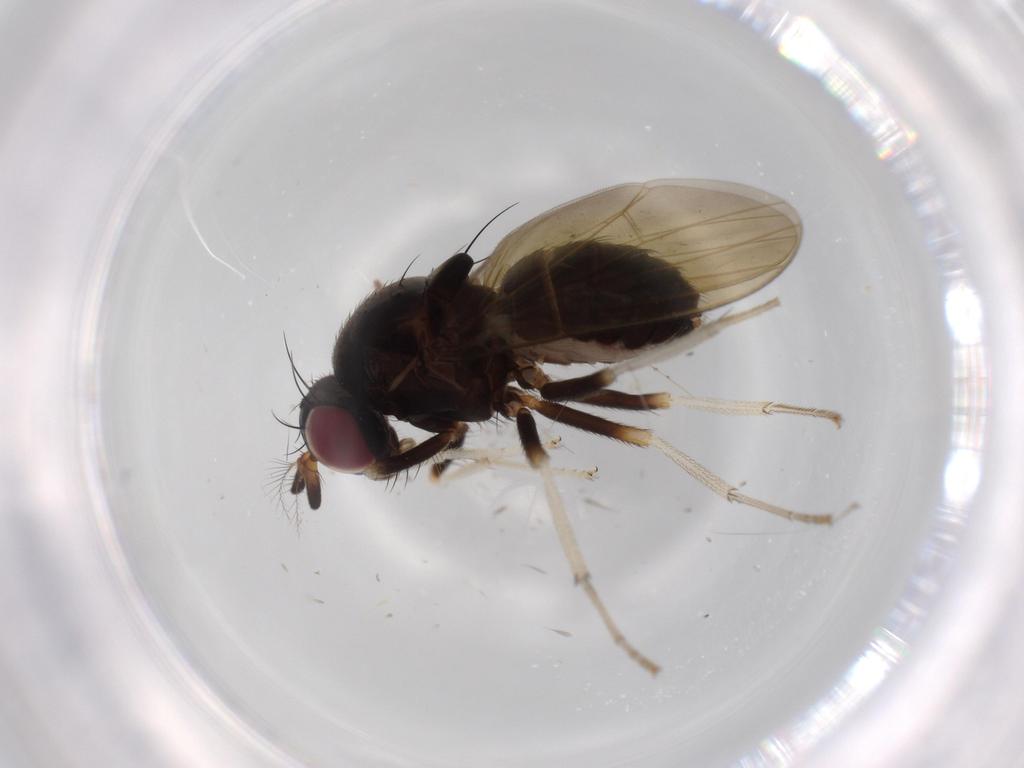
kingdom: Animalia
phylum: Arthropoda
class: Insecta
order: Diptera
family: Lauxaniidae
